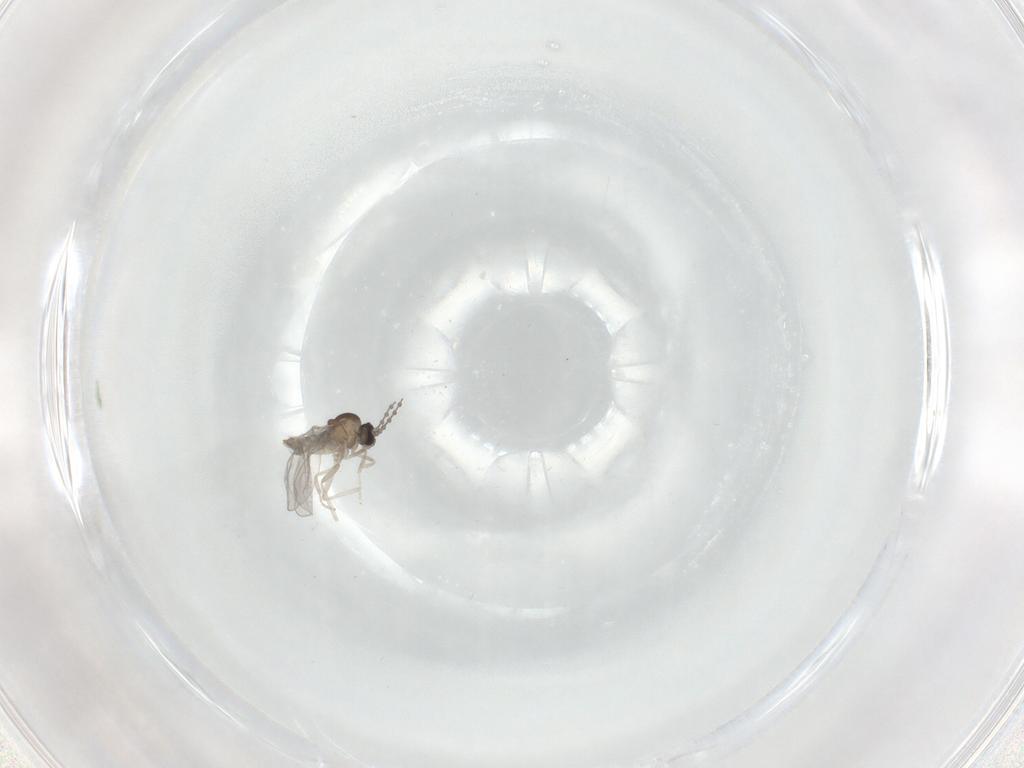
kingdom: Animalia
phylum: Arthropoda
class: Insecta
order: Diptera
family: Cecidomyiidae
